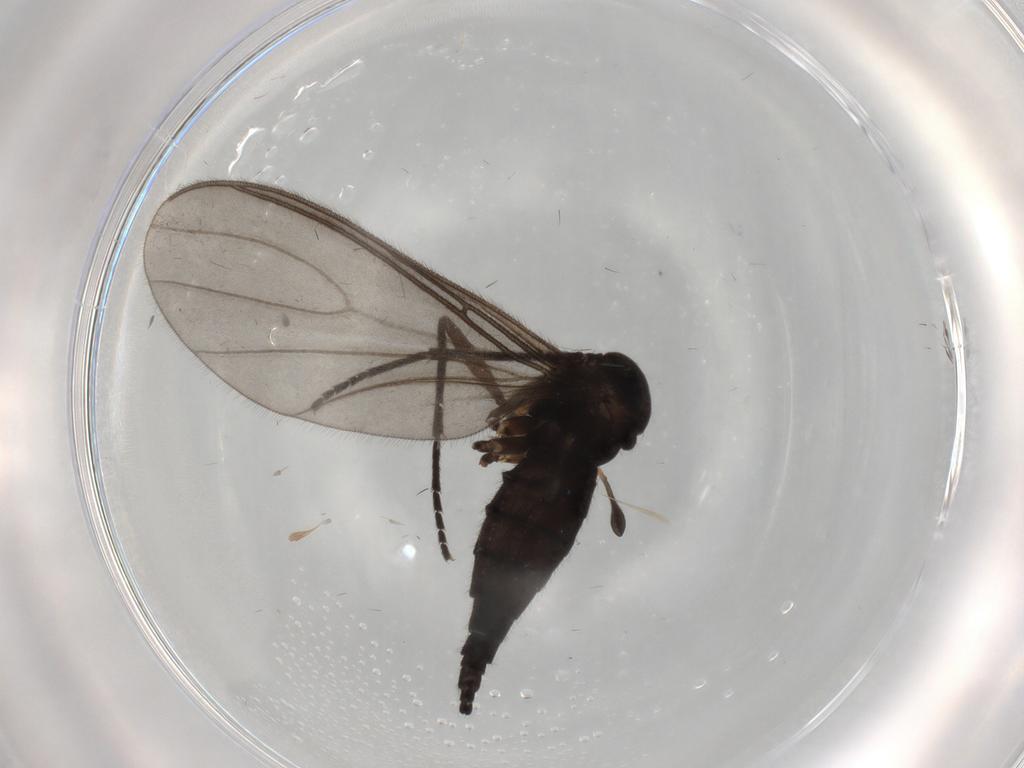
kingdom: Animalia
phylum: Arthropoda
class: Insecta
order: Diptera
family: Sciaridae
